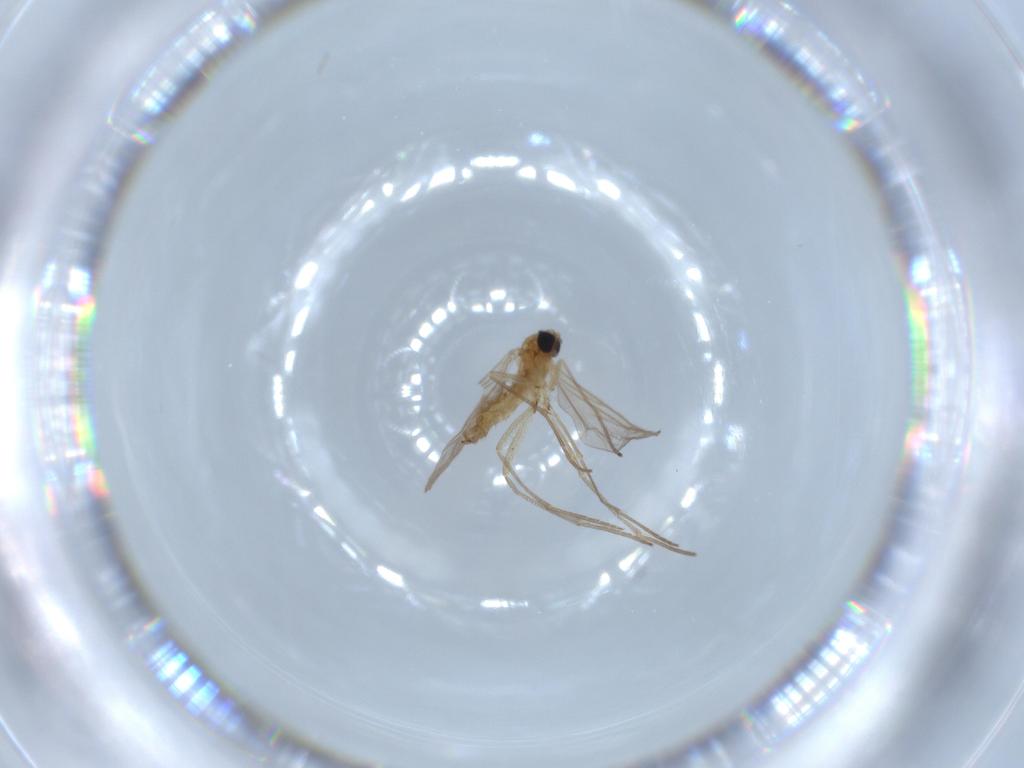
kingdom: Animalia
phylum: Arthropoda
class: Insecta
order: Diptera
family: Sciaridae
